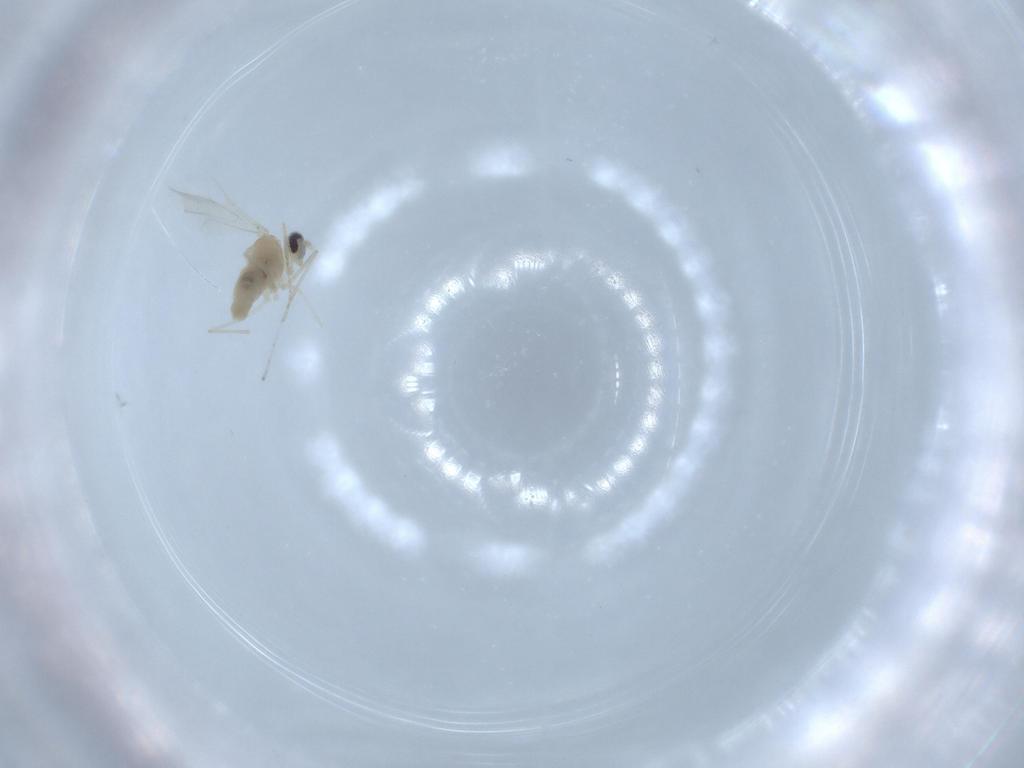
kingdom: Animalia
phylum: Arthropoda
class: Insecta
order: Diptera
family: Cecidomyiidae
